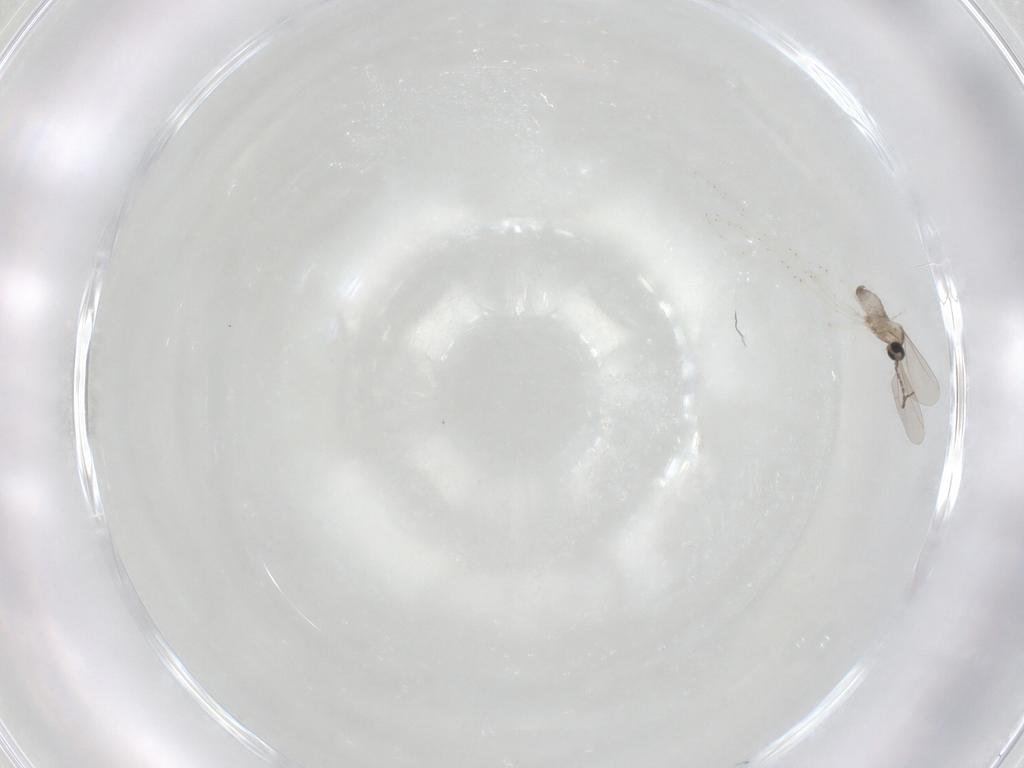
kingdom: Animalia
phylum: Arthropoda
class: Insecta
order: Diptera
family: Cecidomyiidae
